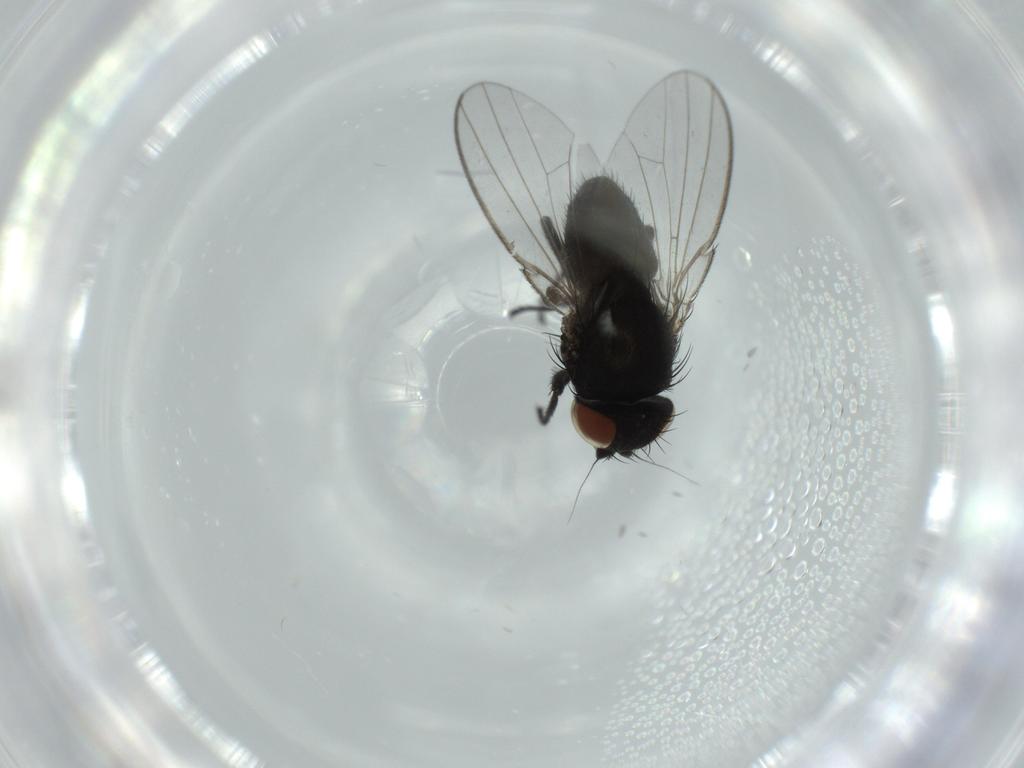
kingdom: Animalia
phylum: Arthropoda
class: Insecta
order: Diptera
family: Milichiidae
